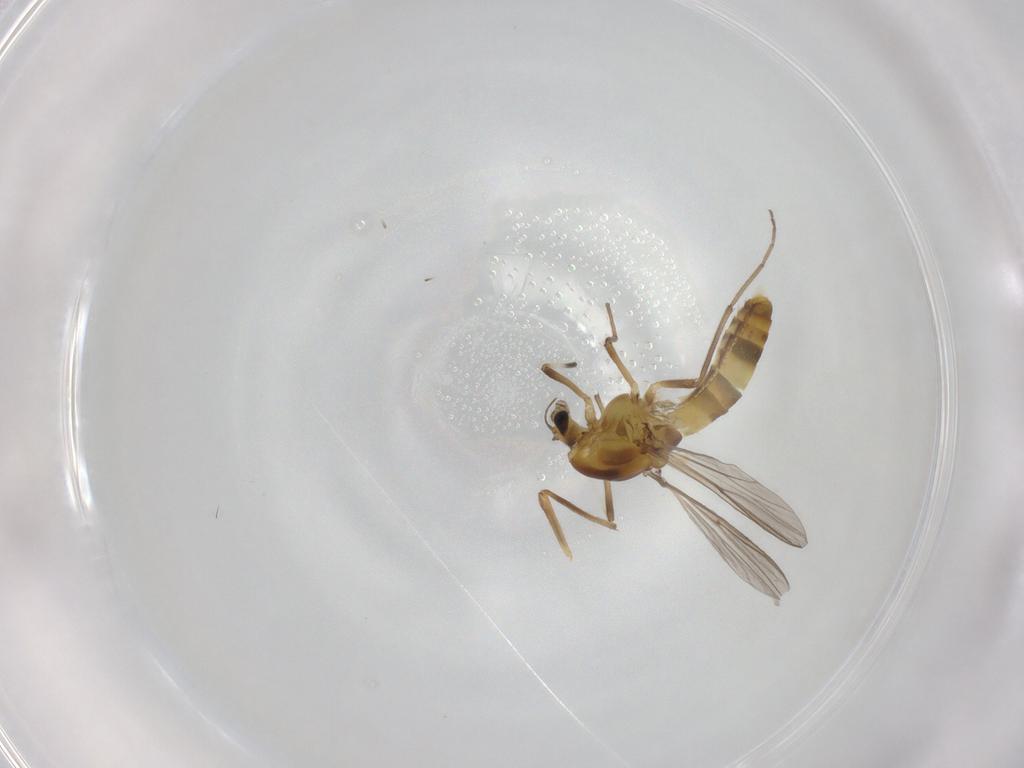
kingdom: Animalia
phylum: Arthropoda
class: Insecta
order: Diptera
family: Chironomidae
